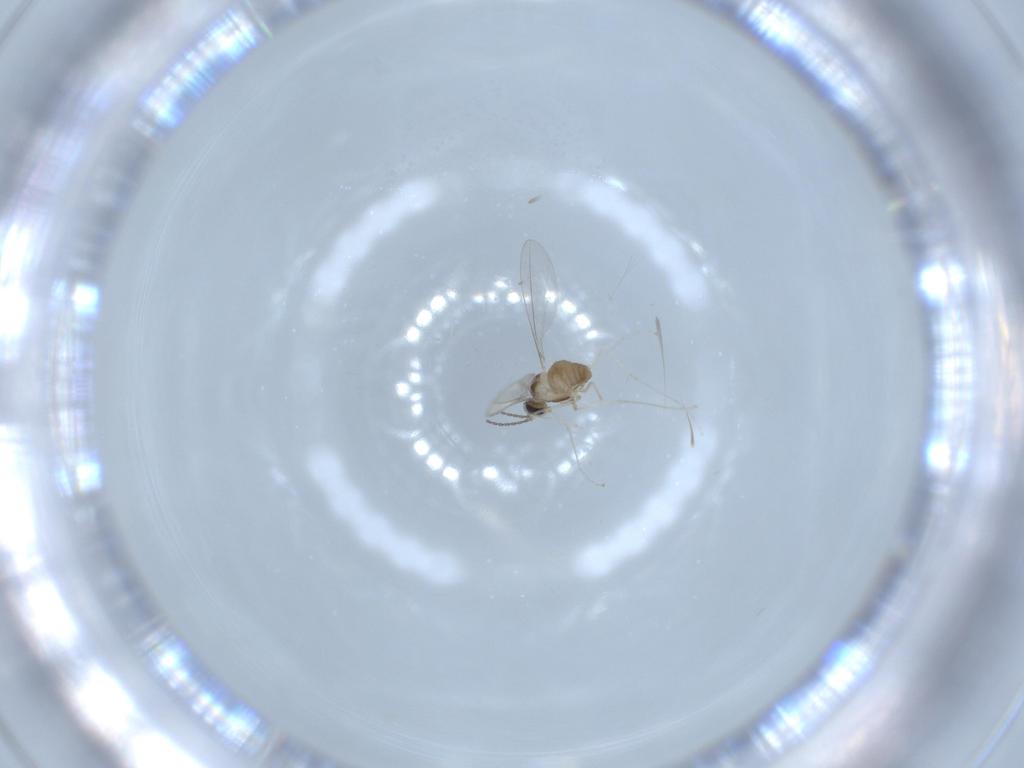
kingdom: Animalia
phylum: Arthropoda
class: Insecta
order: Diptera
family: Cecidomyiidae
